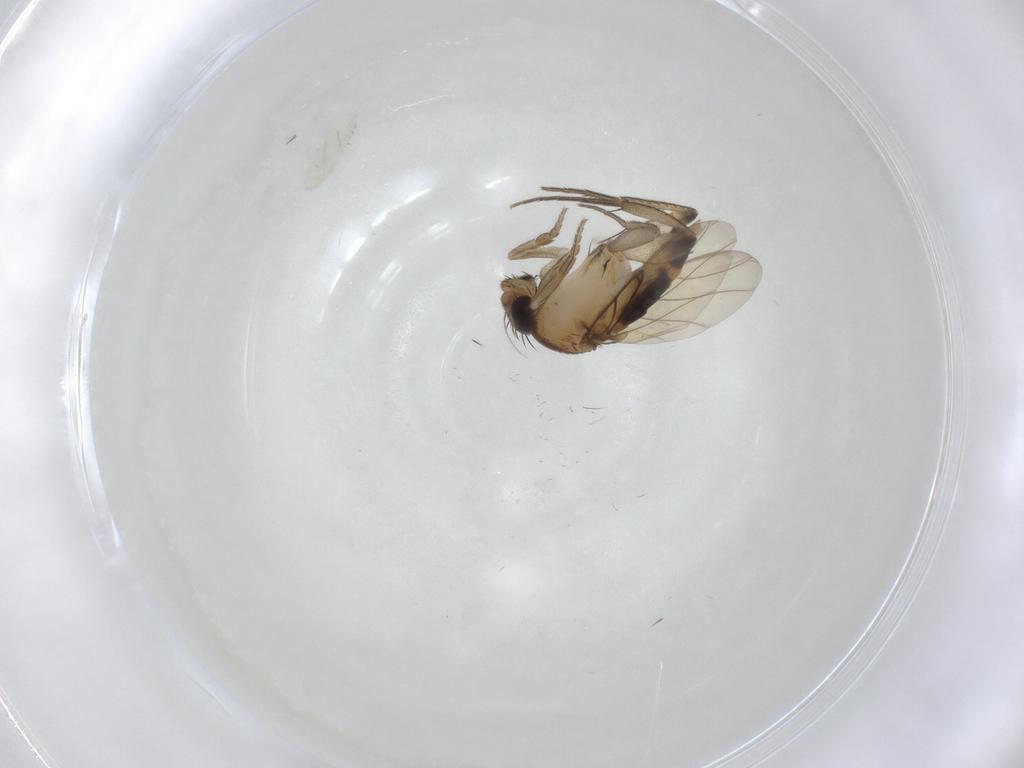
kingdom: Animalia
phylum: Arthropoda
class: Insecta
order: Diptera
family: Phoridae
